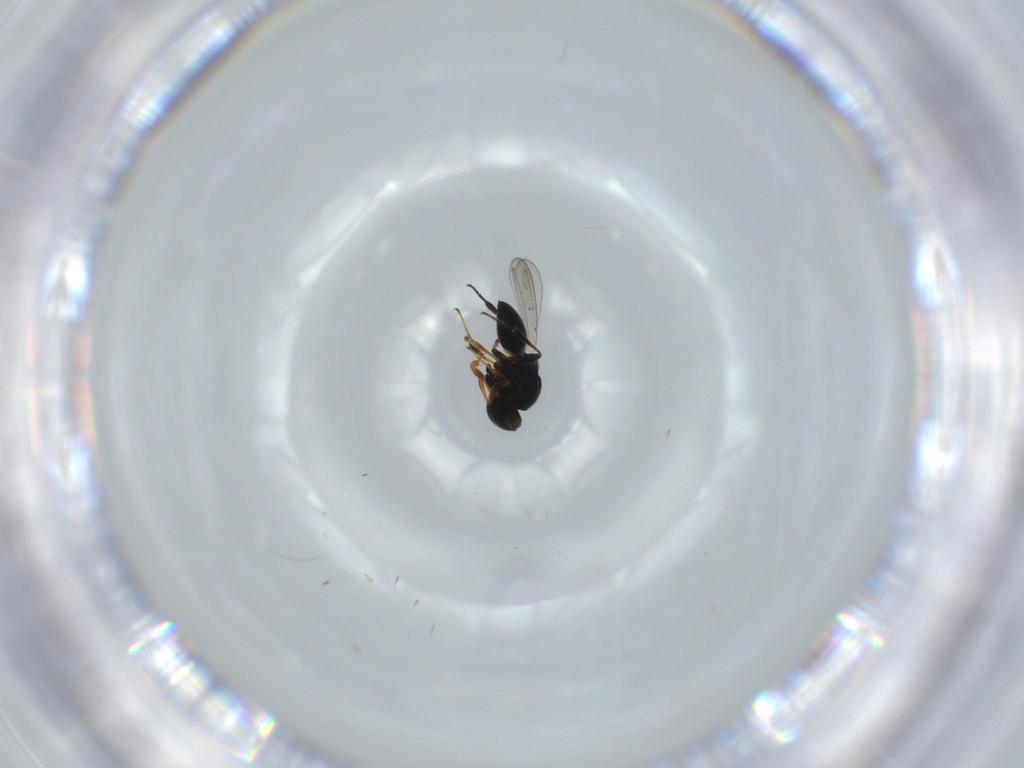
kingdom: Animalia
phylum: Arthropoda
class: Insecta
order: Hymenoptera
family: Platygastridae
